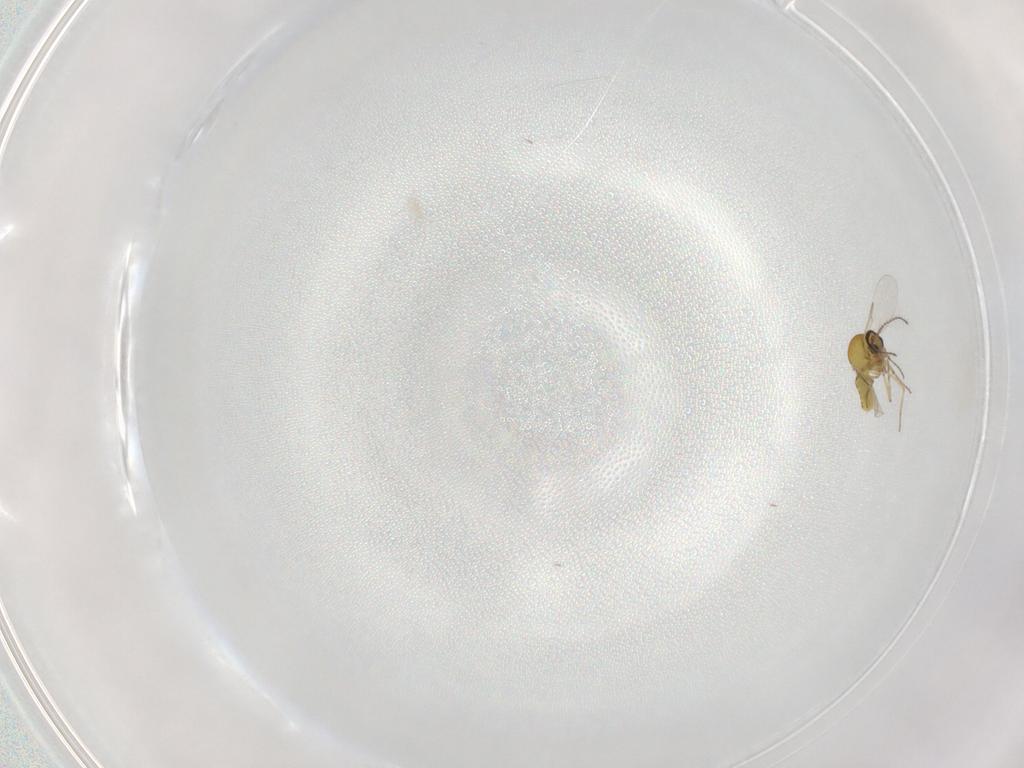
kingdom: Animalia
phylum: Arthropoda
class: Insecta
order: Diptera
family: Ceratopogonidae
